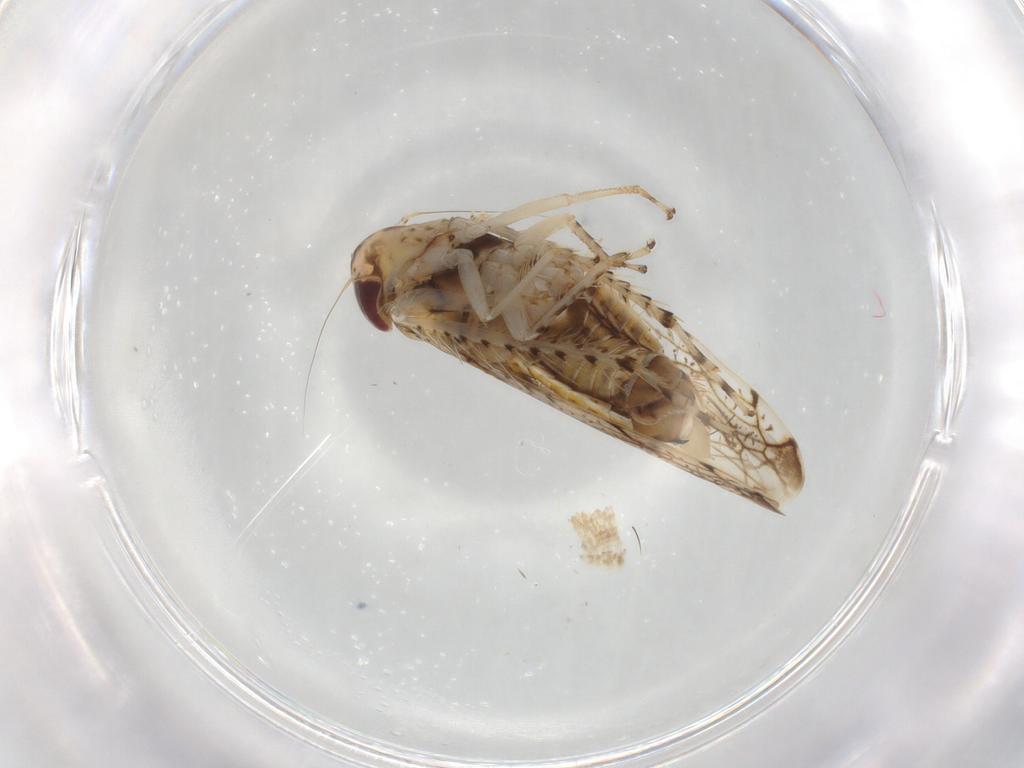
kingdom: Animalia
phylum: Arthropoda
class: Insecta
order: Hemiptera
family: Cicadellidae
